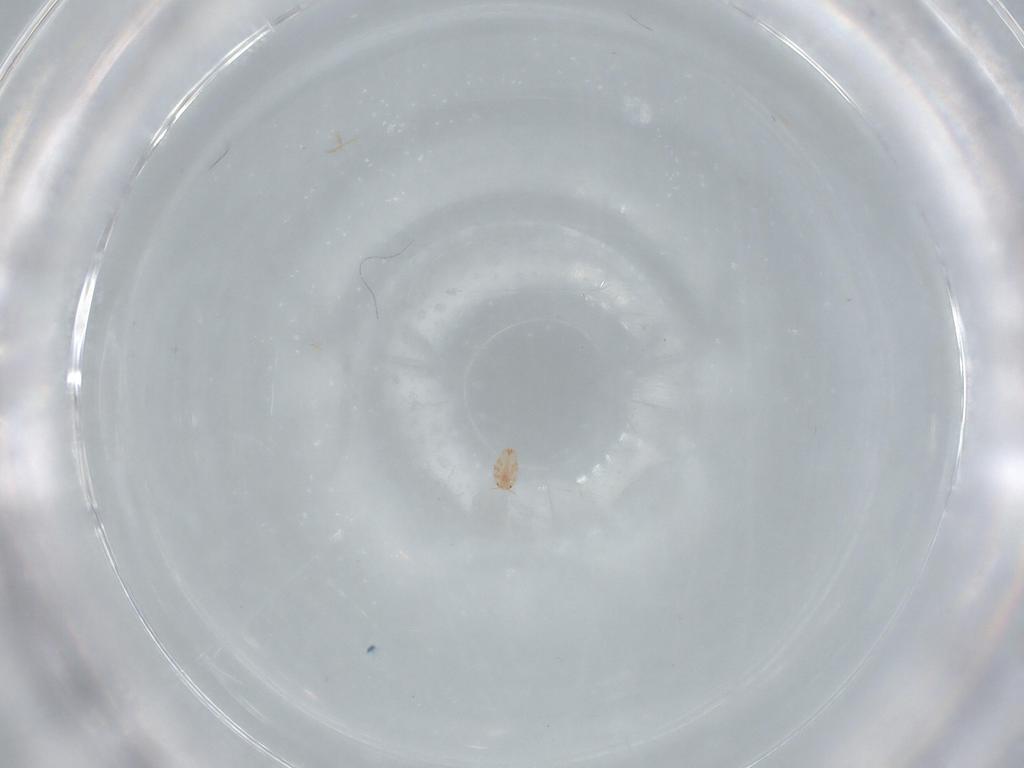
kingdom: Animalia
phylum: Arthropoda
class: Insecta
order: Hemiptera
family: Coccidae
